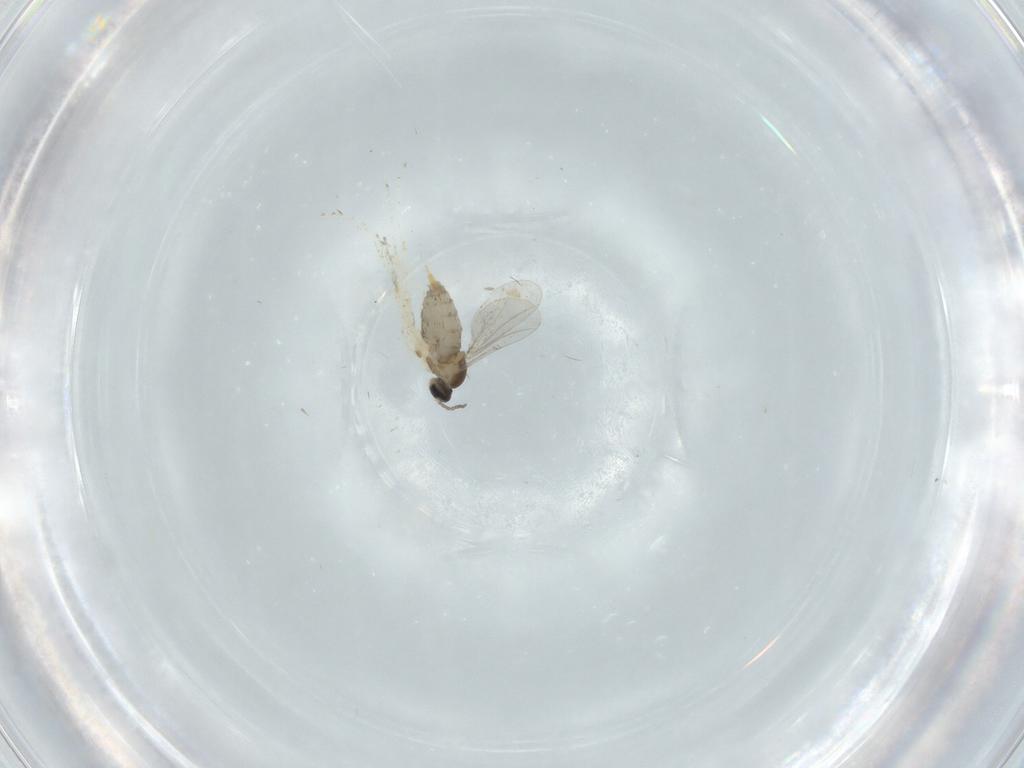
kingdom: Animalia
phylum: Arthropoda
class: Insecta
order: Diptera
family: Cecidomyiidae
